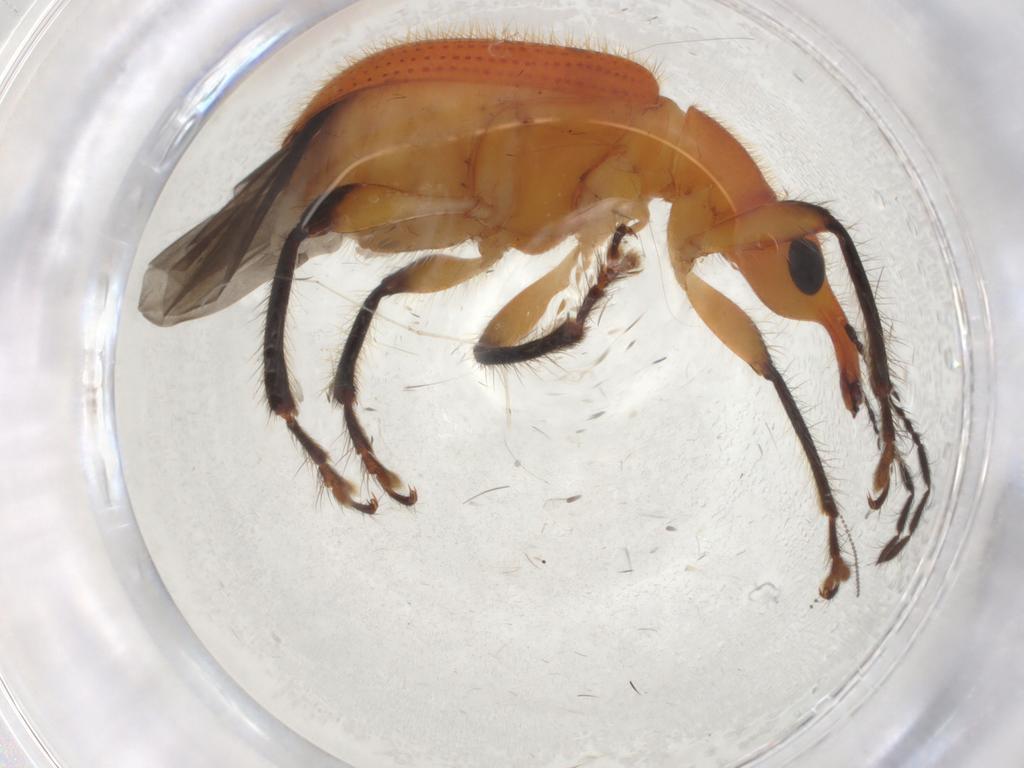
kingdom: Animalia
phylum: Arthropoda
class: Insecta
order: Coleoptera
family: Attelabidae
